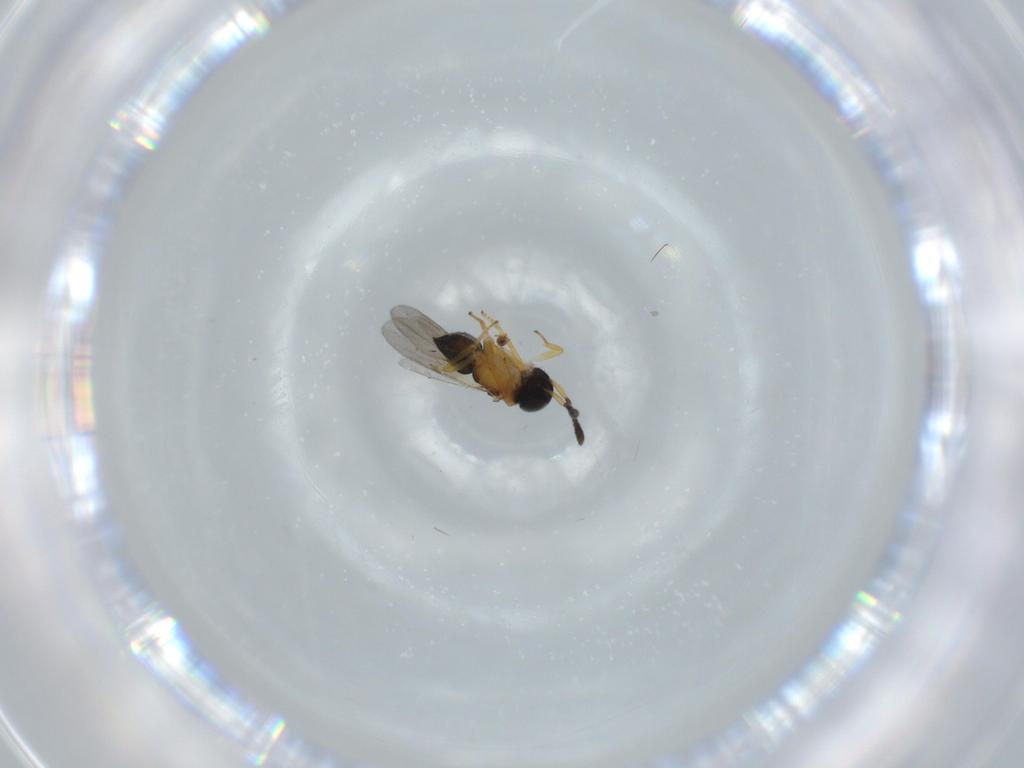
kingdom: Animalia
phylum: Arthropoda
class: Insecta
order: Hymenoptera
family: Encyrtidae
